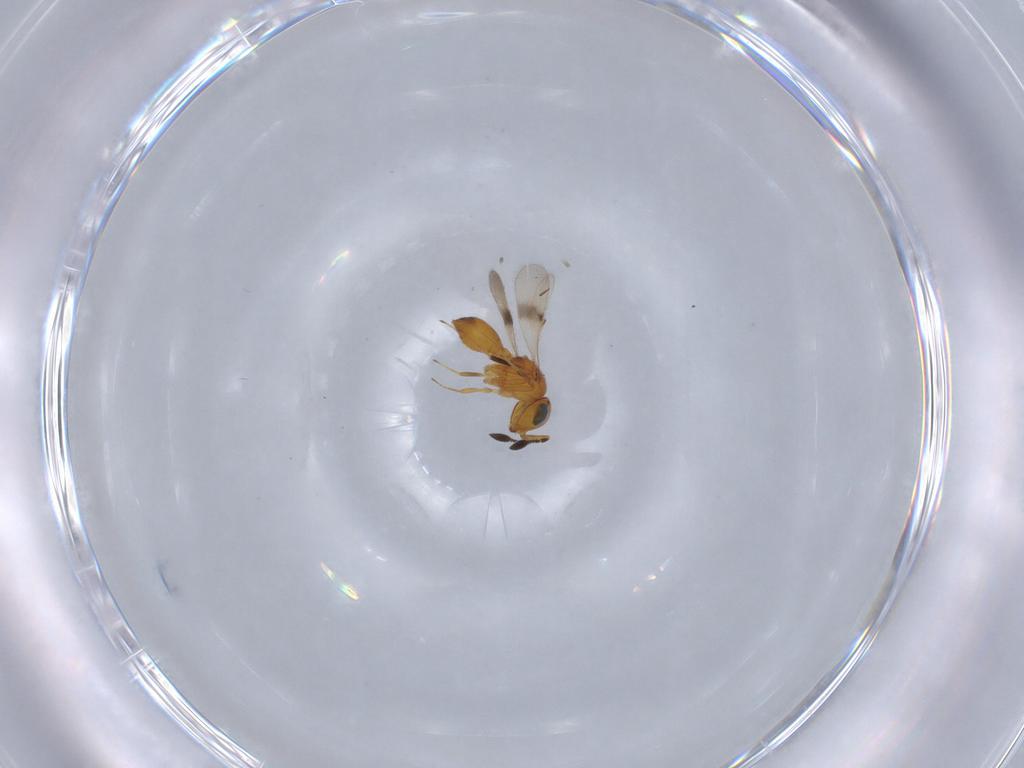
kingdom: Animalia
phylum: Arthropoda
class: Insecta
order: Hymenoptera
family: Scelionidae
